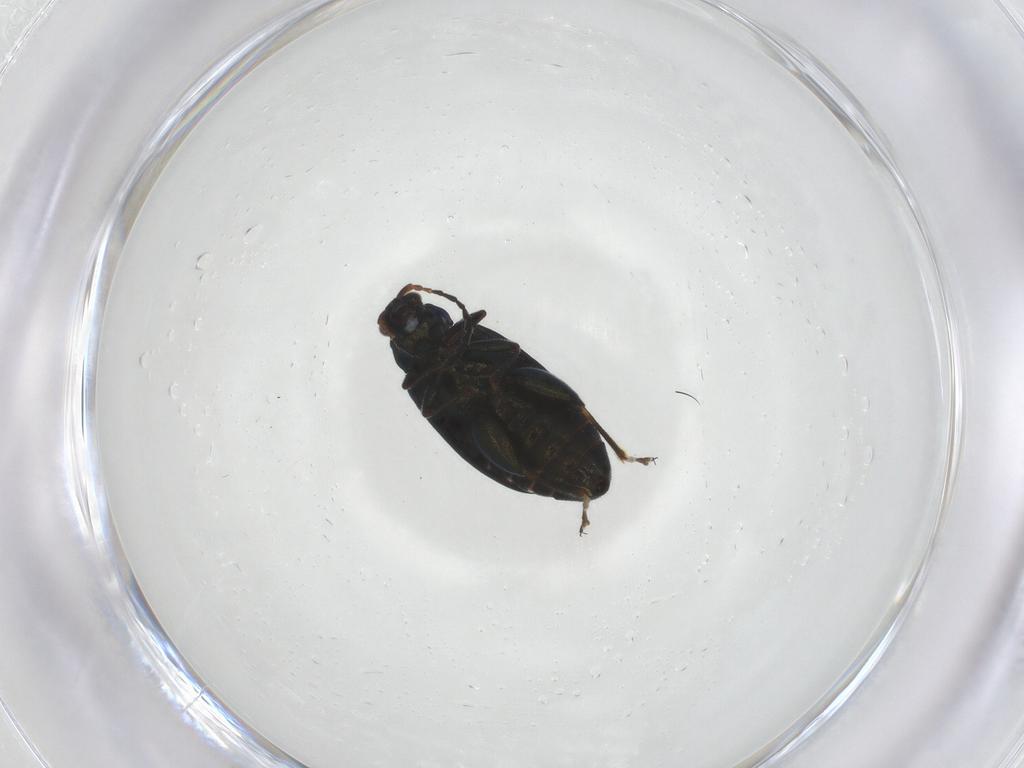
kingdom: Animalia
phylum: Arthropoda
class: Insecta
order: Coleoptera
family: Chrysomelidae
